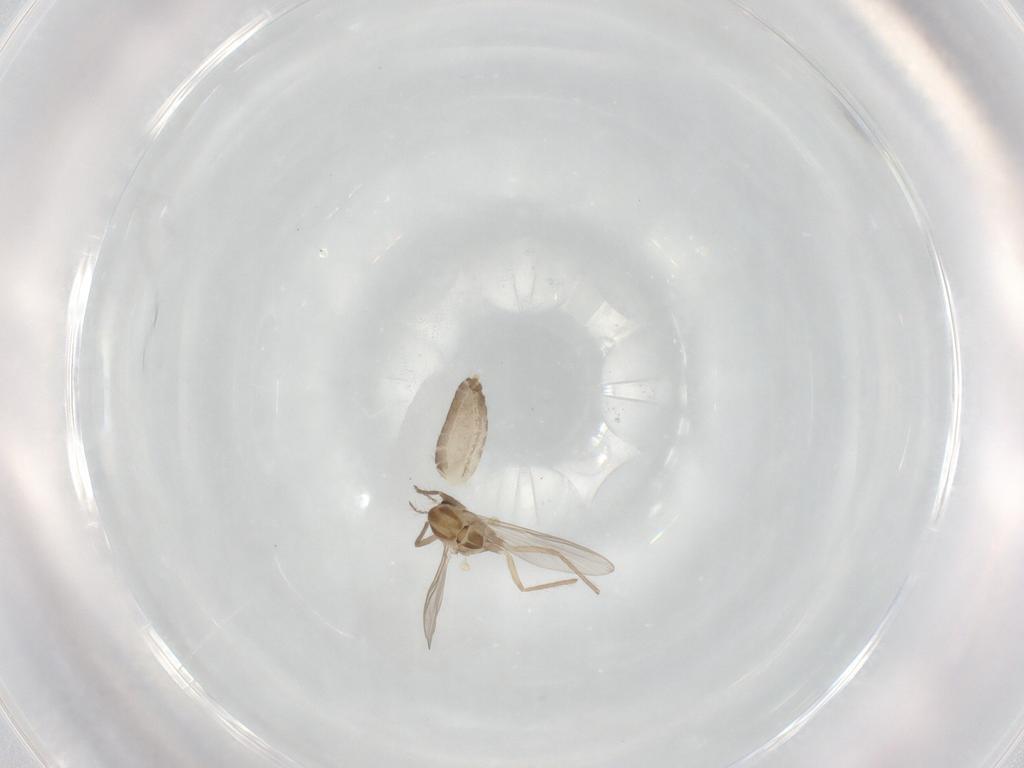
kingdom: Animalia
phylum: Arthropoda
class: Insecta
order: Diptera
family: Chironomidae
